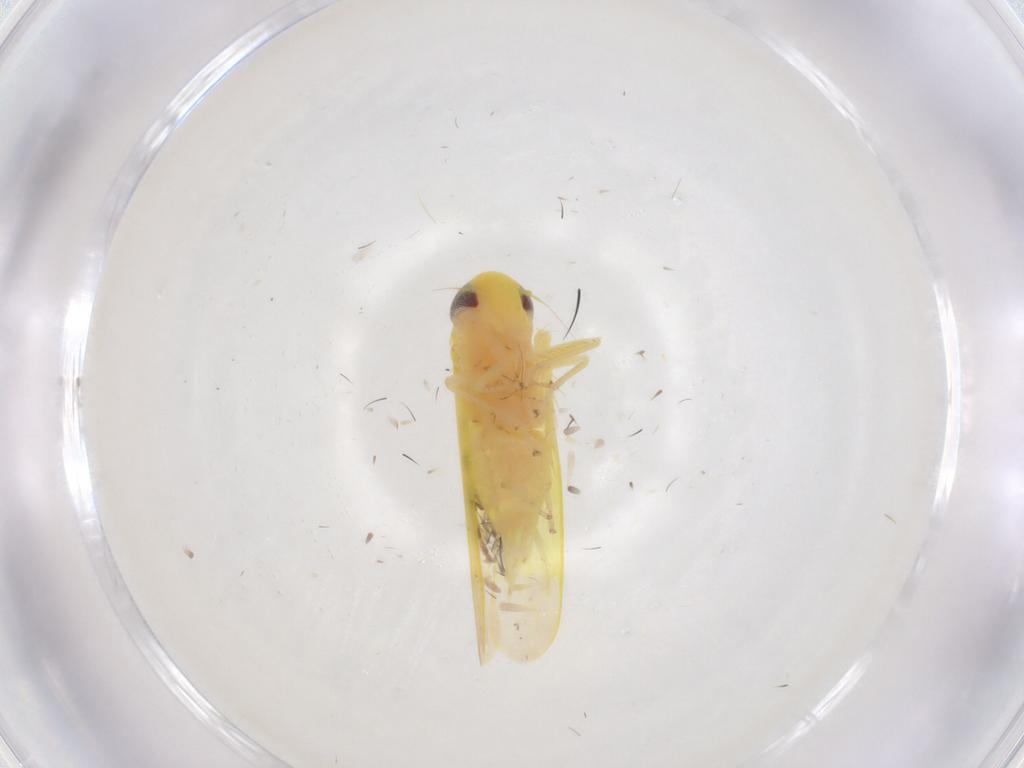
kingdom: Animalia
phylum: Arthropoda
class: Insecta
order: Hemiptera
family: Cicadellidae
